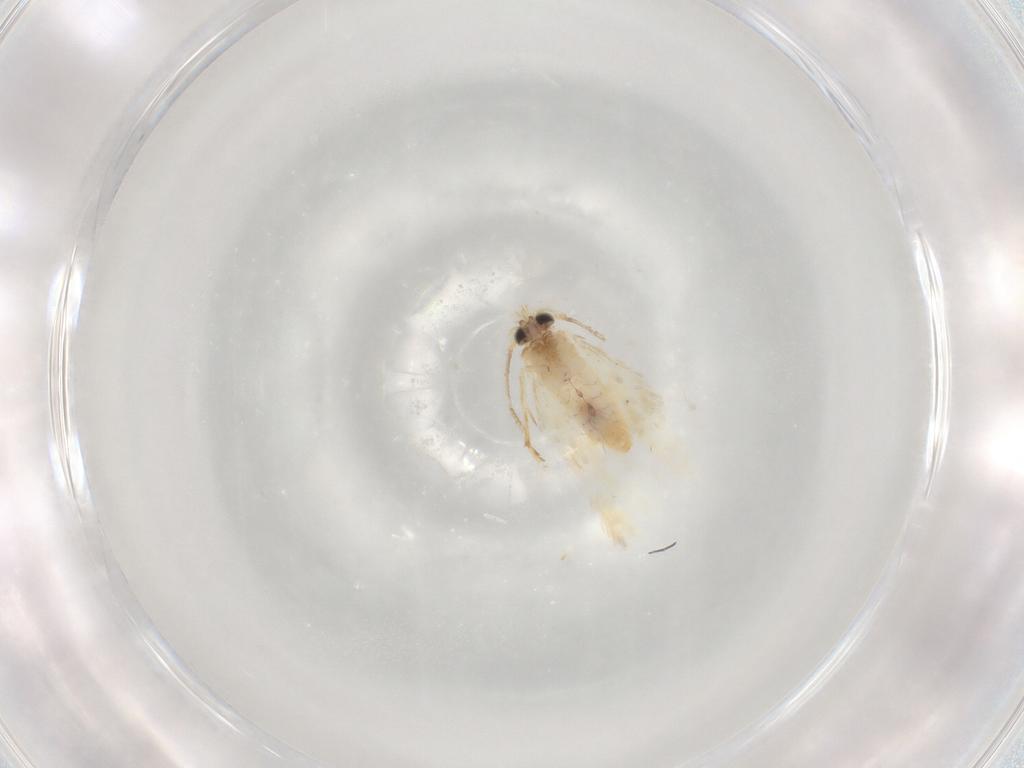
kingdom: Animalia
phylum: Arthropoda
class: Insecta
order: Lepidoptera
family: Nepticulidae
